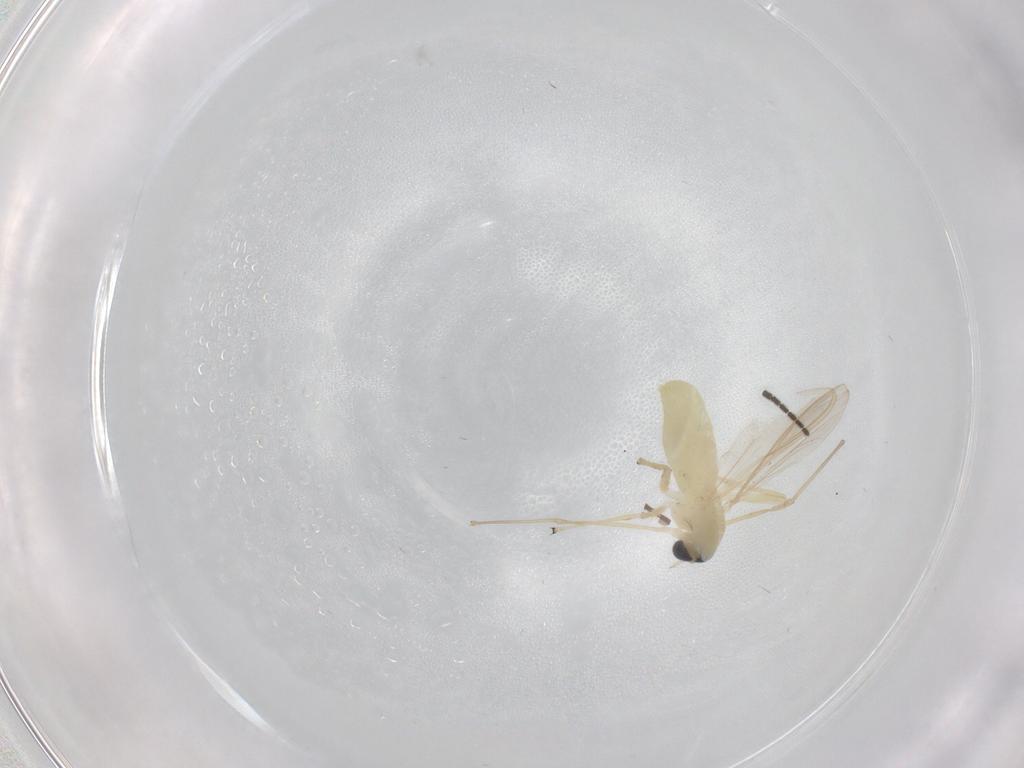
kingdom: Animalia
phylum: Arthropoda
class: Insecta
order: Diptera
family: Chironomidae
